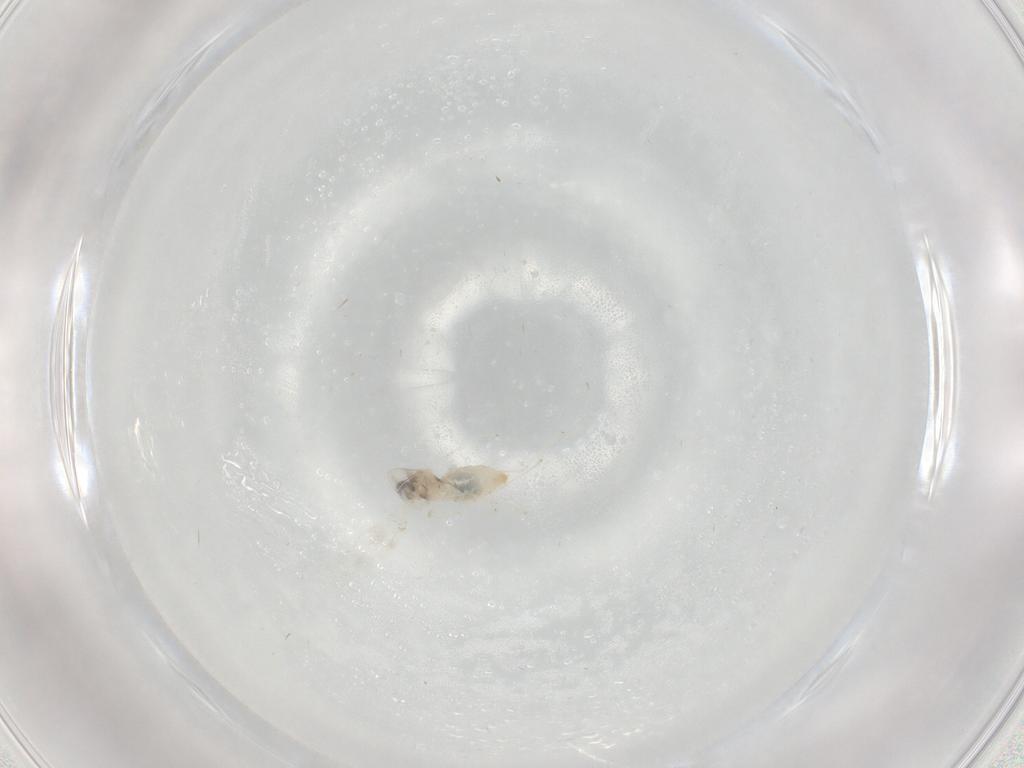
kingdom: Animalia
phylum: Arthropoda
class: Insecta
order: Diptera
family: Cecidomyiidae
